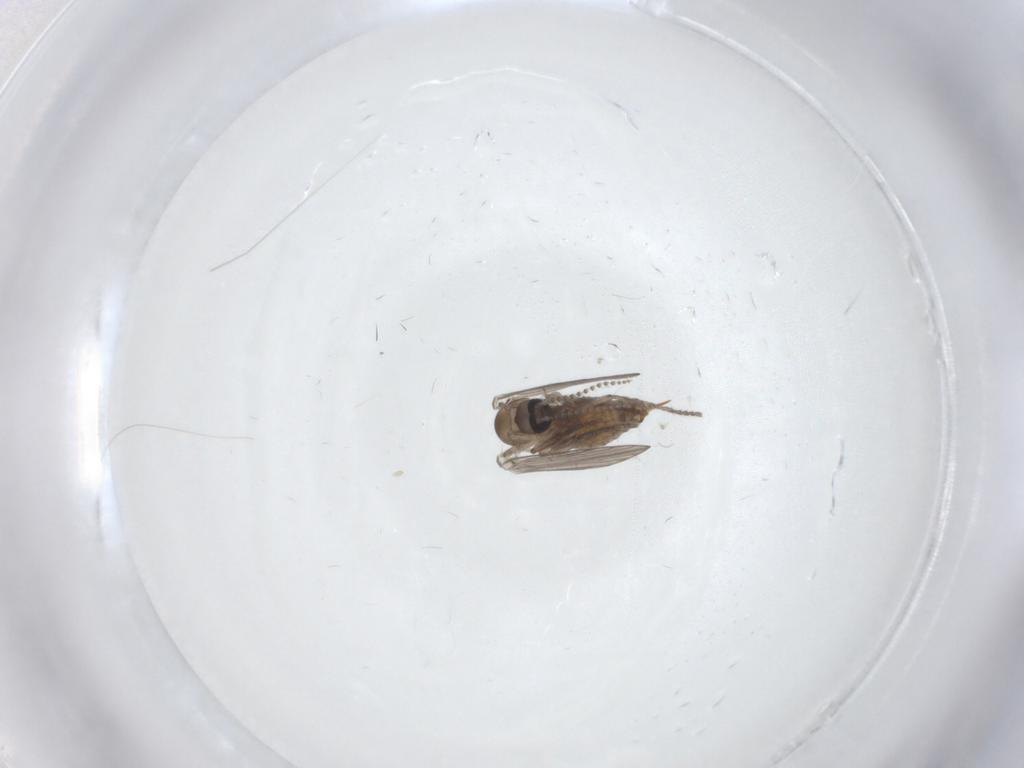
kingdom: Animalia
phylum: Arthropoda
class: Insecta
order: Diptera
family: Psychodidae
